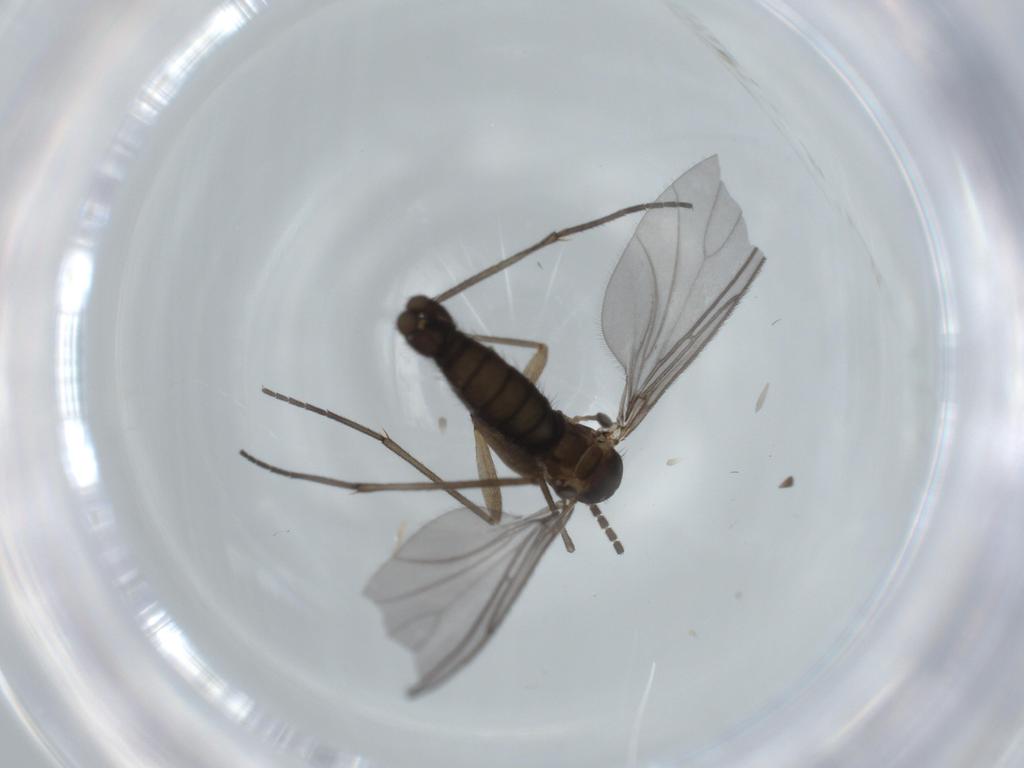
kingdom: Animalia
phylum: Arthropoda
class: Insecta
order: Diptera
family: Sciaridae
